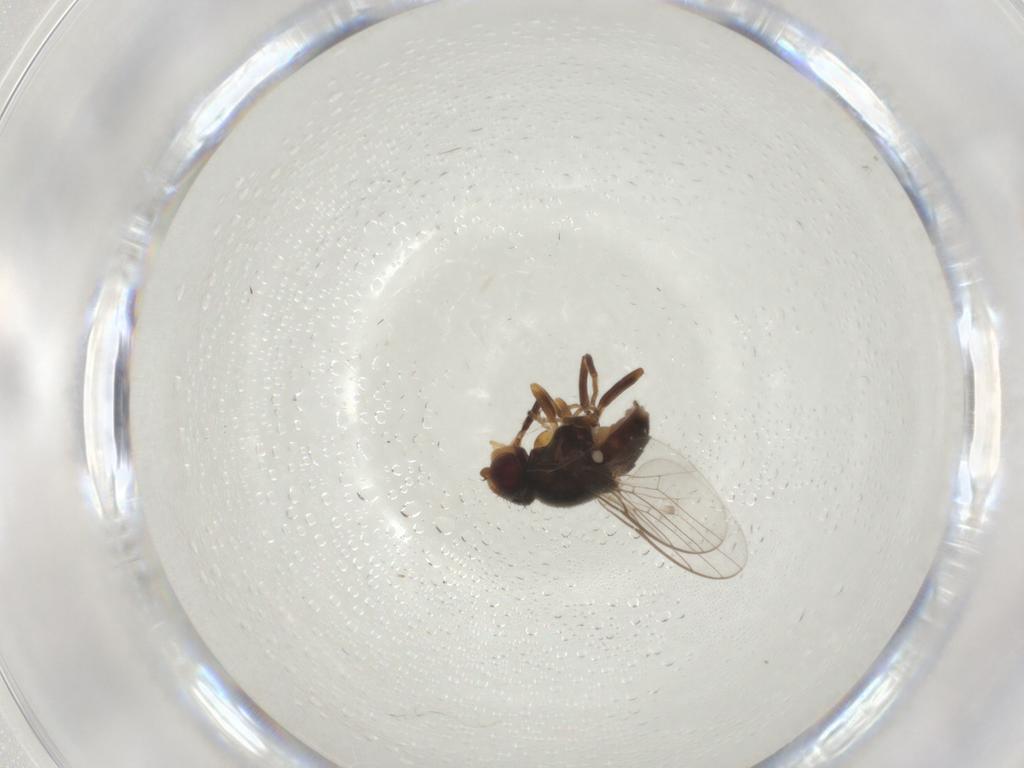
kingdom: Animalia
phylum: Arthropoda
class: Insecta
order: Diptera
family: Chloropidae
